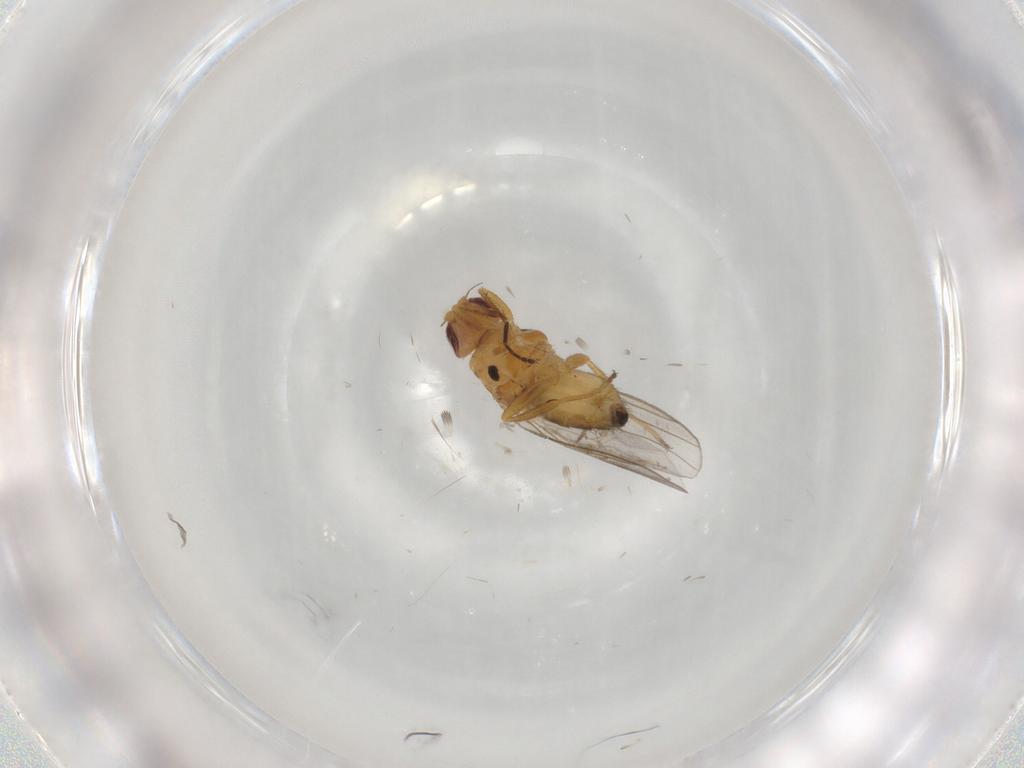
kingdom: Animalia
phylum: Arthropoda
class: Insecta
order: Diptera
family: Chloropidae
